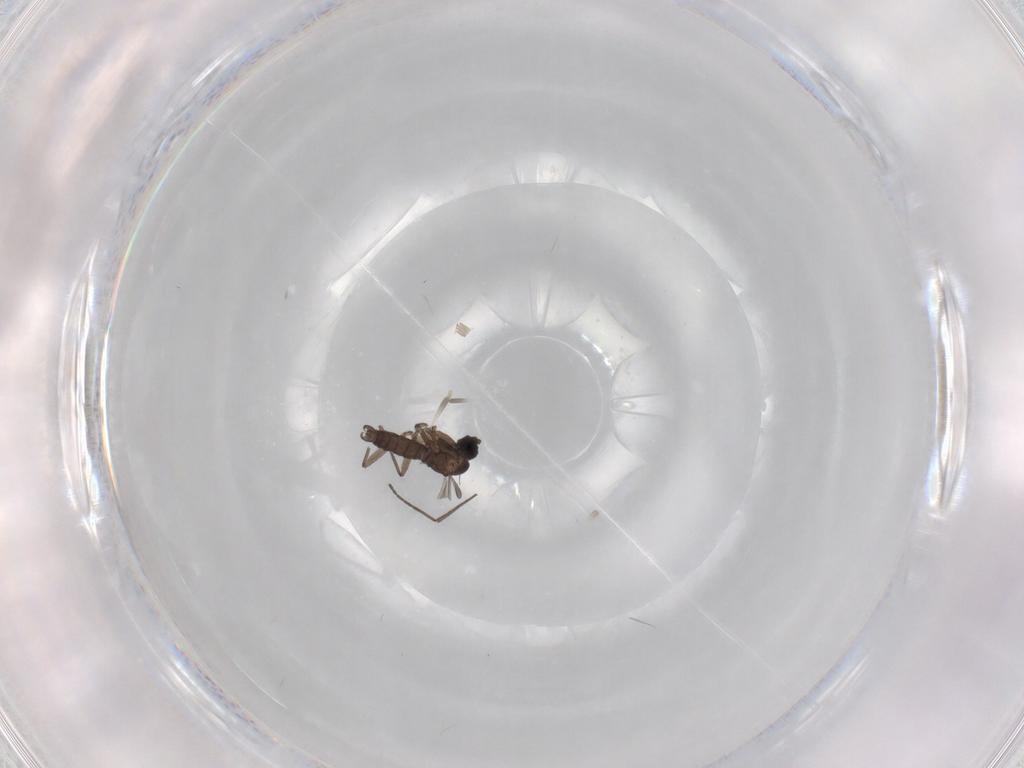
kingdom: Animalia
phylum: Arthropoda
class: Insecta
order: Diptera
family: Sciaridae
